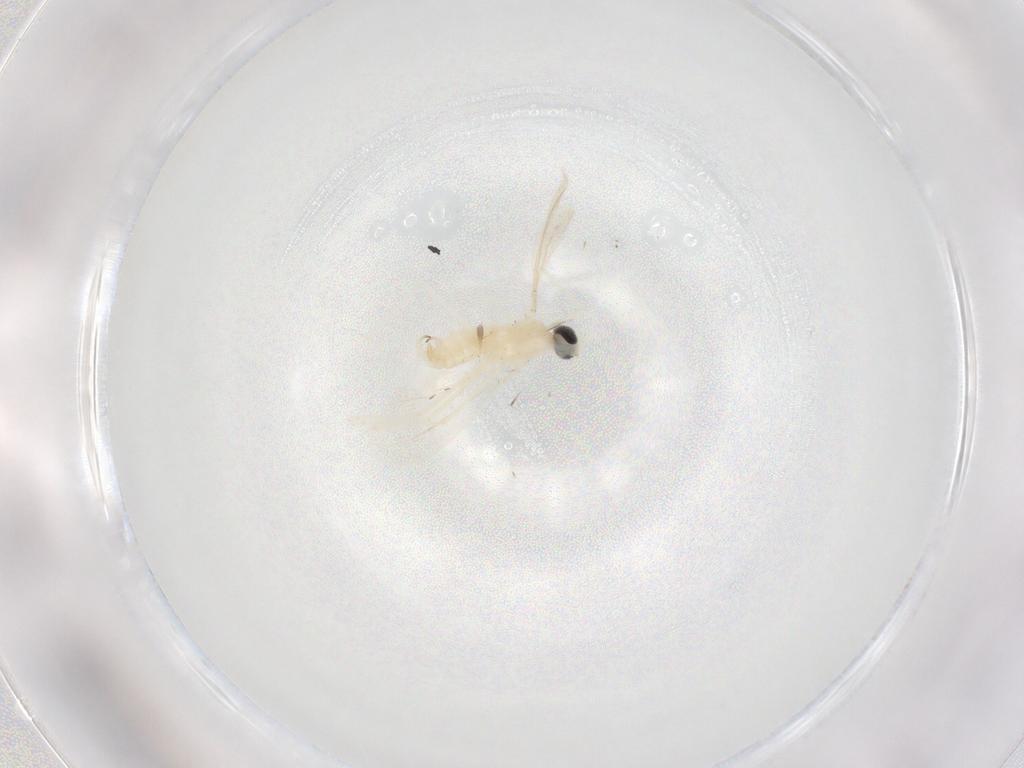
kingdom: Animalia
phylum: Arthropoda
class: Insecta
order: Diptera
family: Cecidomyiidae
